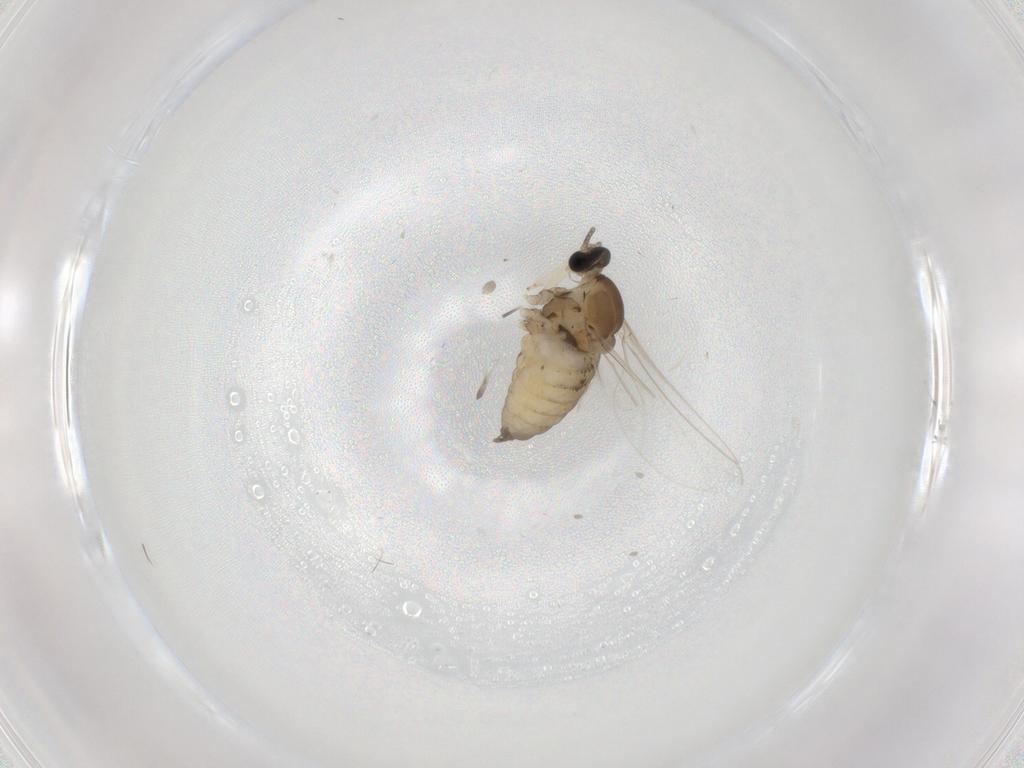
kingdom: Animalia
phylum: Arthropoda
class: Insecta
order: Diptera
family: Cecidomyiidae
